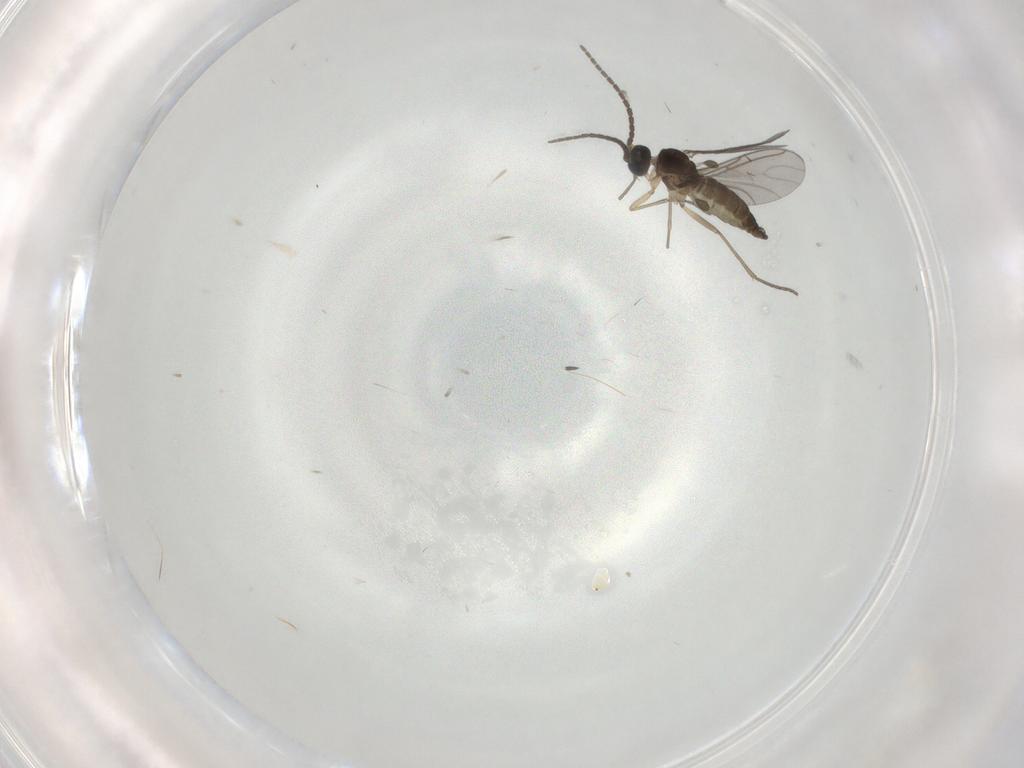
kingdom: Animalia
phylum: Arthropoda
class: Insecta
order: Diptera
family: Sciaridae
